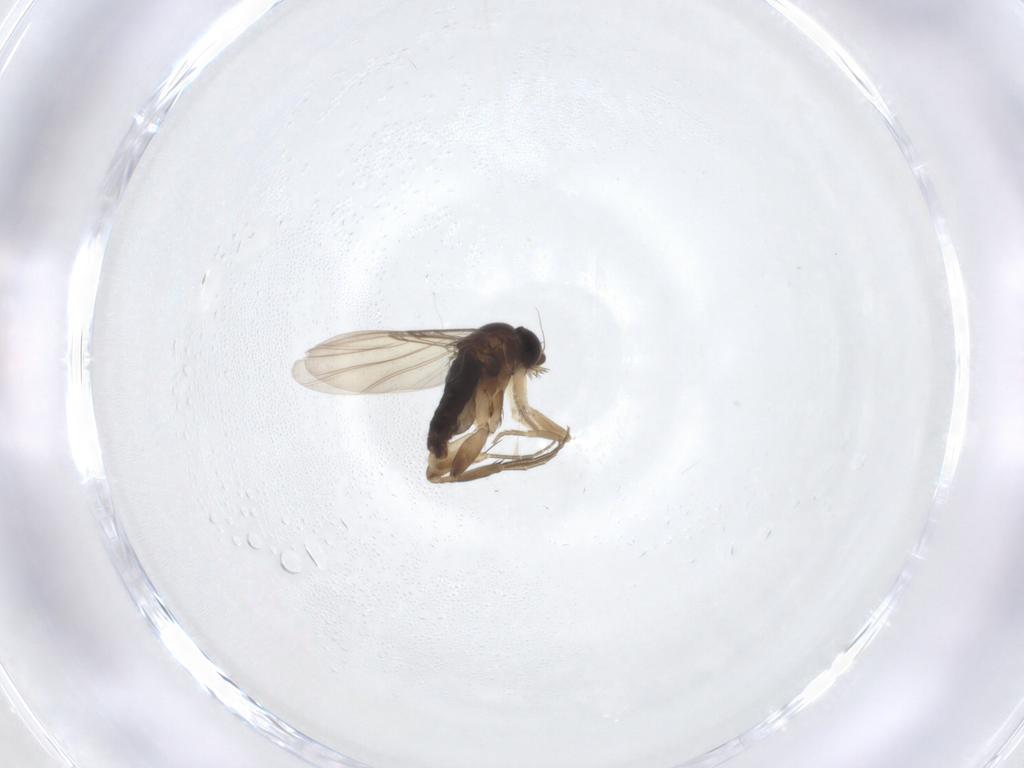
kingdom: Animalia
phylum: Arthropoda
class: Insecta
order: Diptera
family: Phoridae
